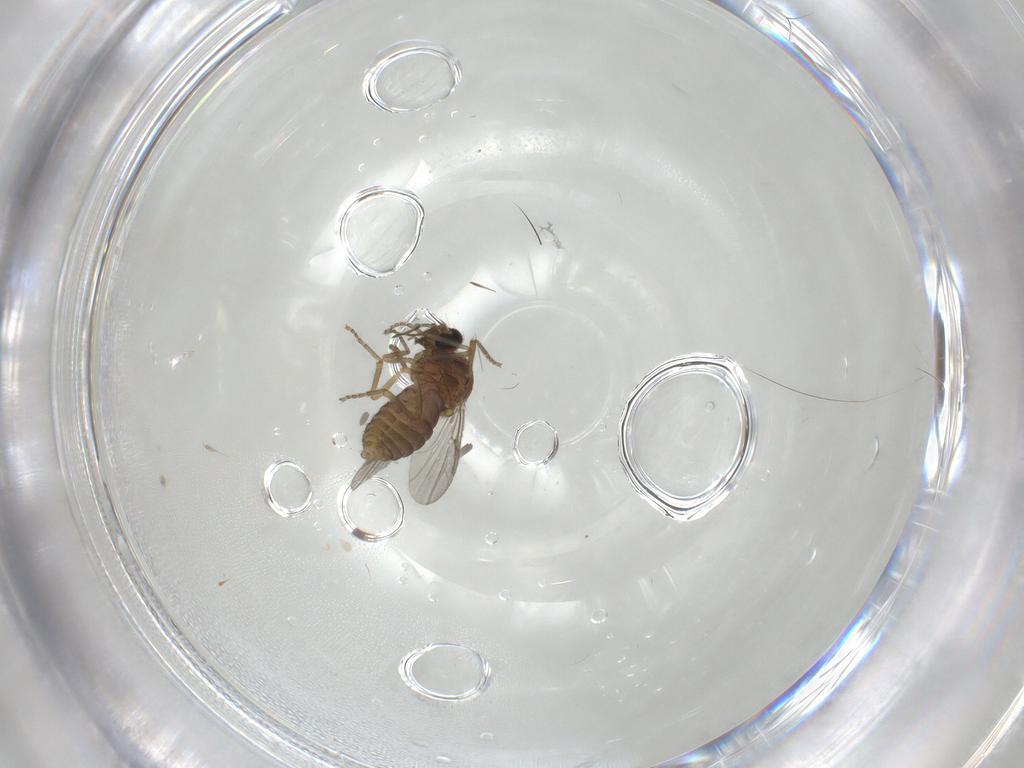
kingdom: Animalia
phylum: Arthropoda
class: Insecta
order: Diptera
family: Ceratopogonidae
